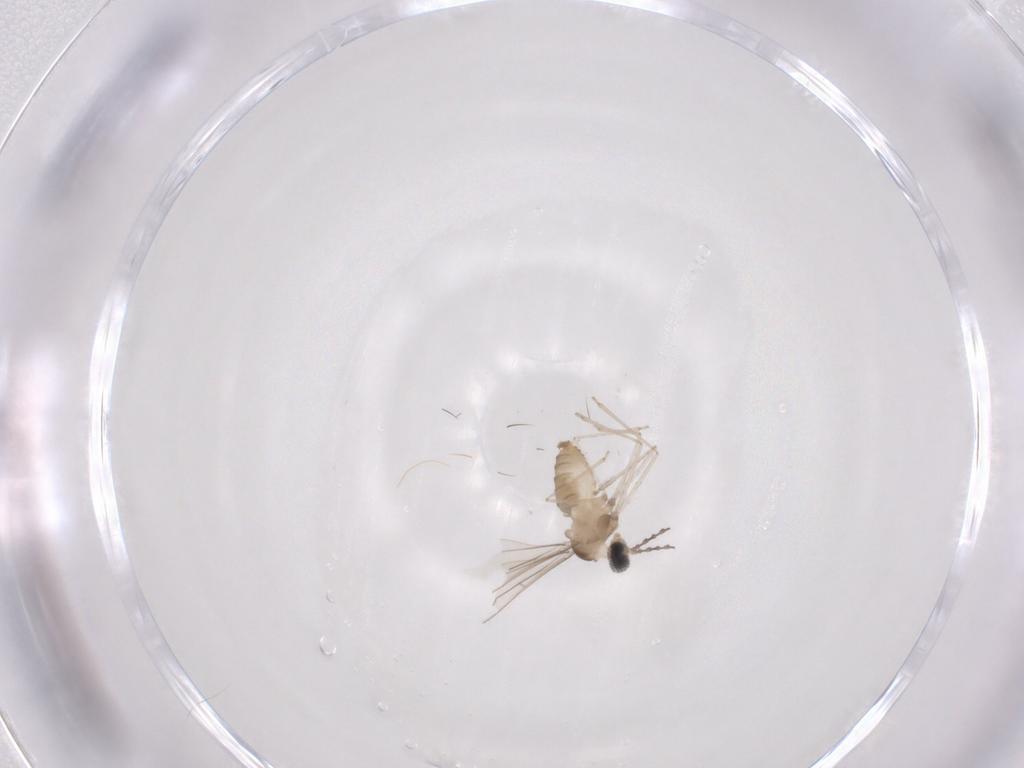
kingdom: Animalia
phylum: Arthropoda
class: Insecta
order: Diptera
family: Cecidomyiidae
